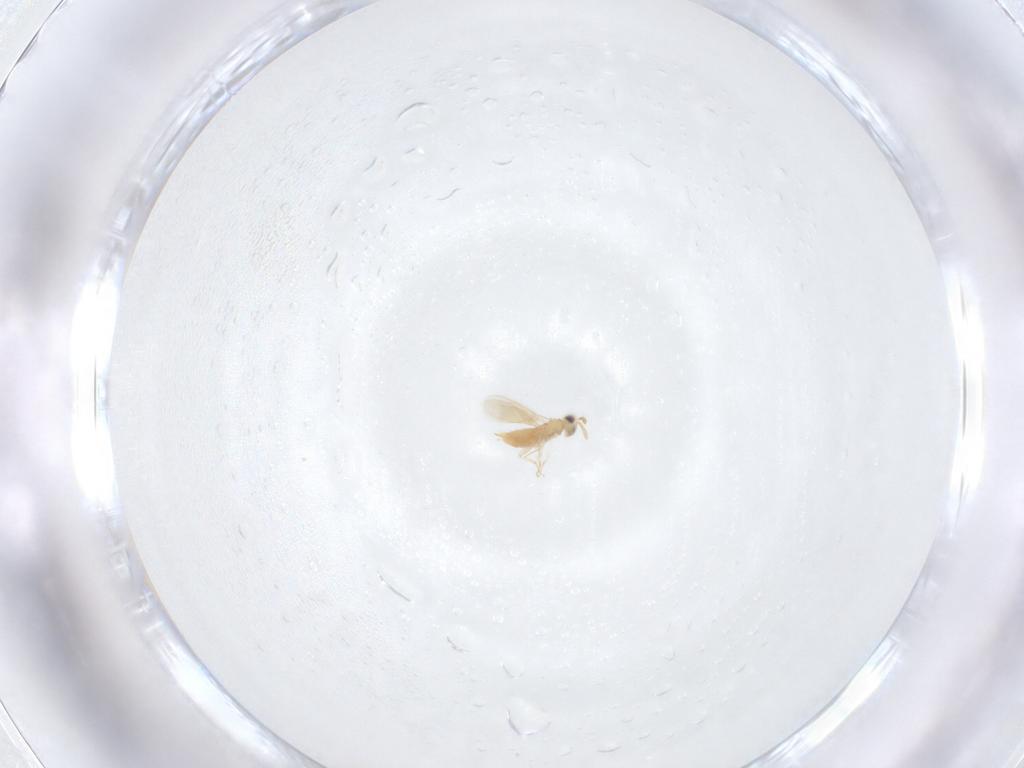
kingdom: Animalia
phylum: Arthropoda
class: Insecta
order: Hymenoptera
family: Aphelinidae
